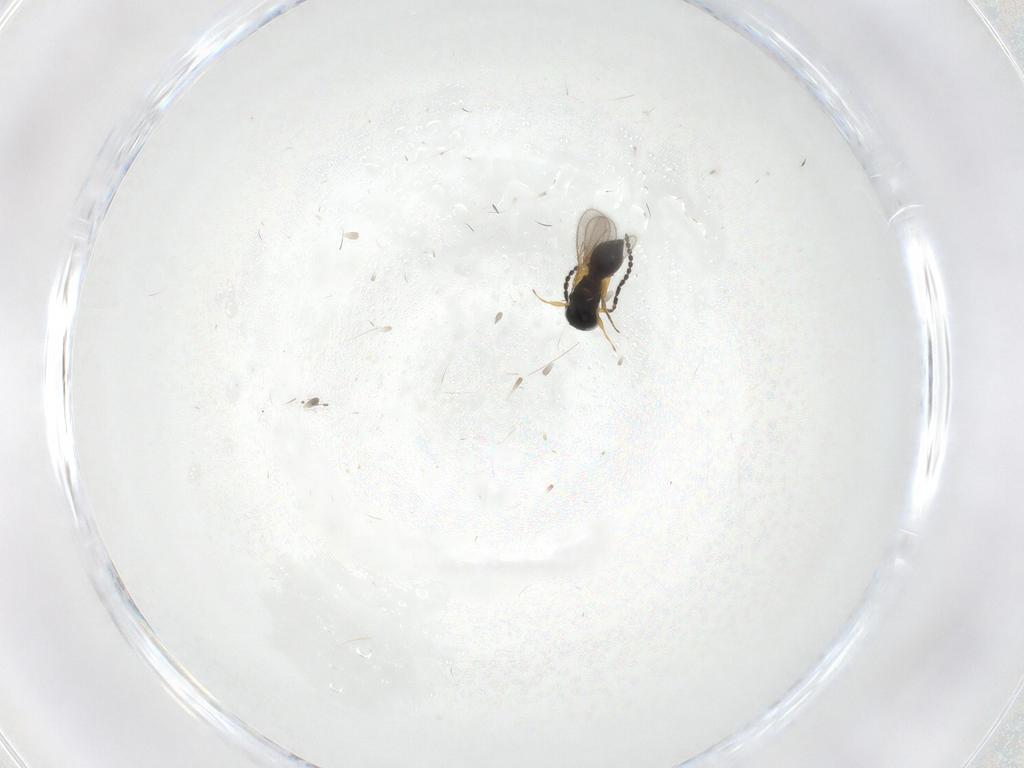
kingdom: Animalia
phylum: Arthropoda
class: Insecta
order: Hymenoptera
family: Scelionidae
